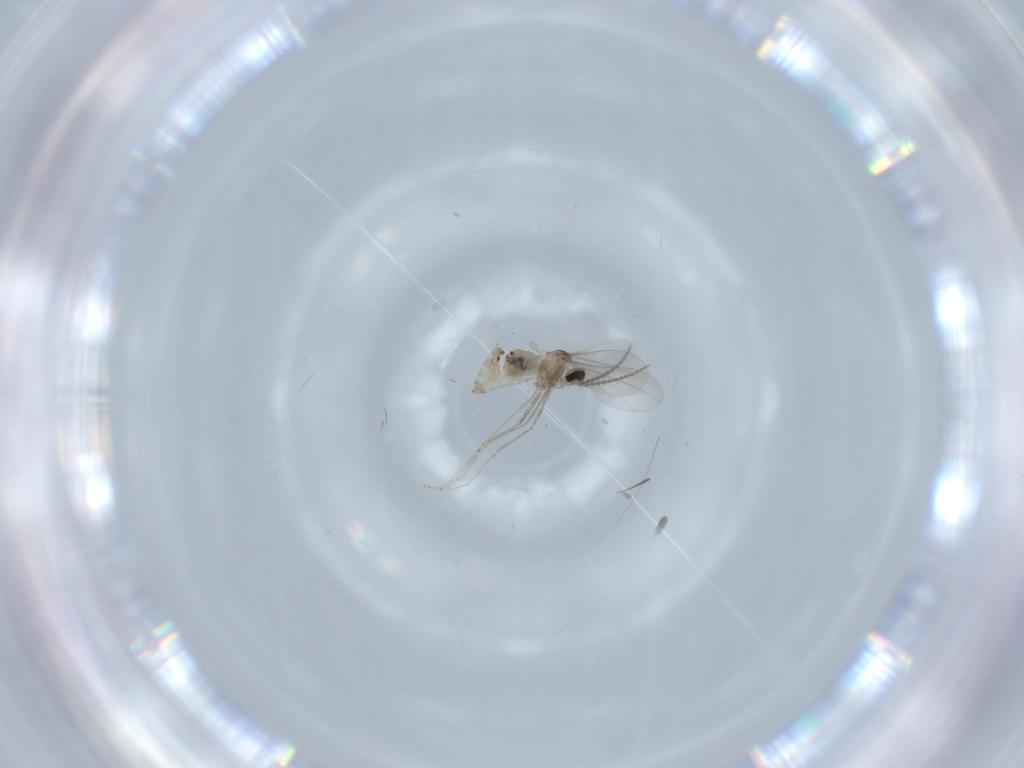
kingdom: Animalia
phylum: Arthropoda
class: Insecta
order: Diptera
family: Cecidomyiidae
